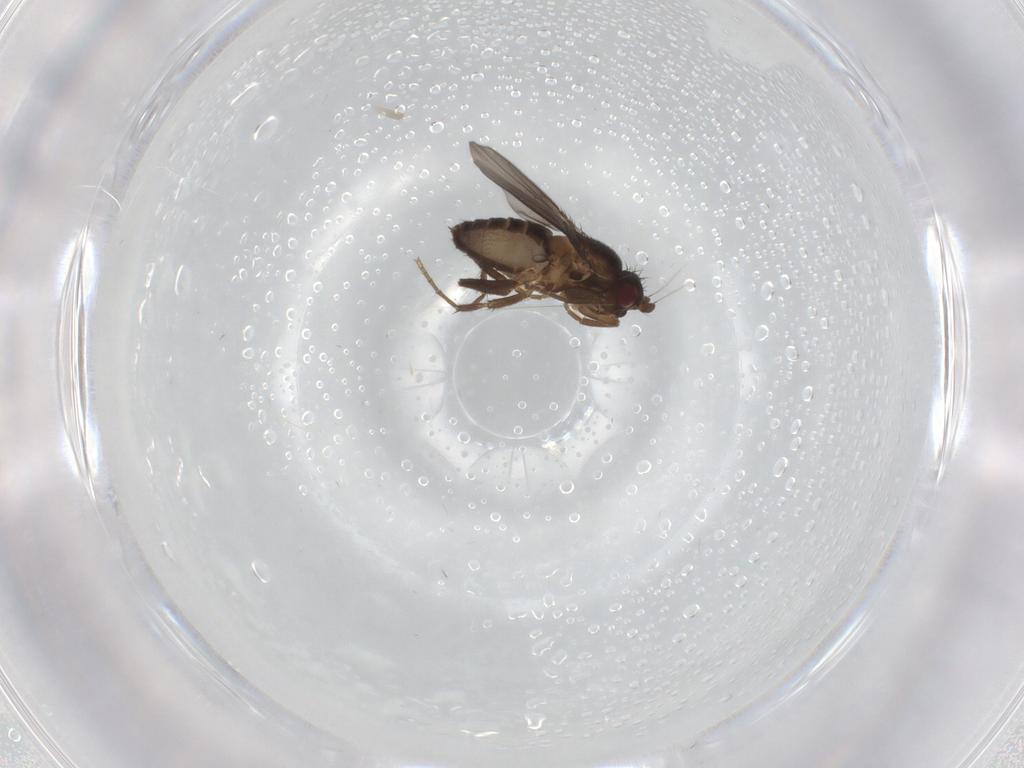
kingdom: Animalia
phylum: Arthropoda
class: Insecta
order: Diptera
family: Sphaeroceridae
